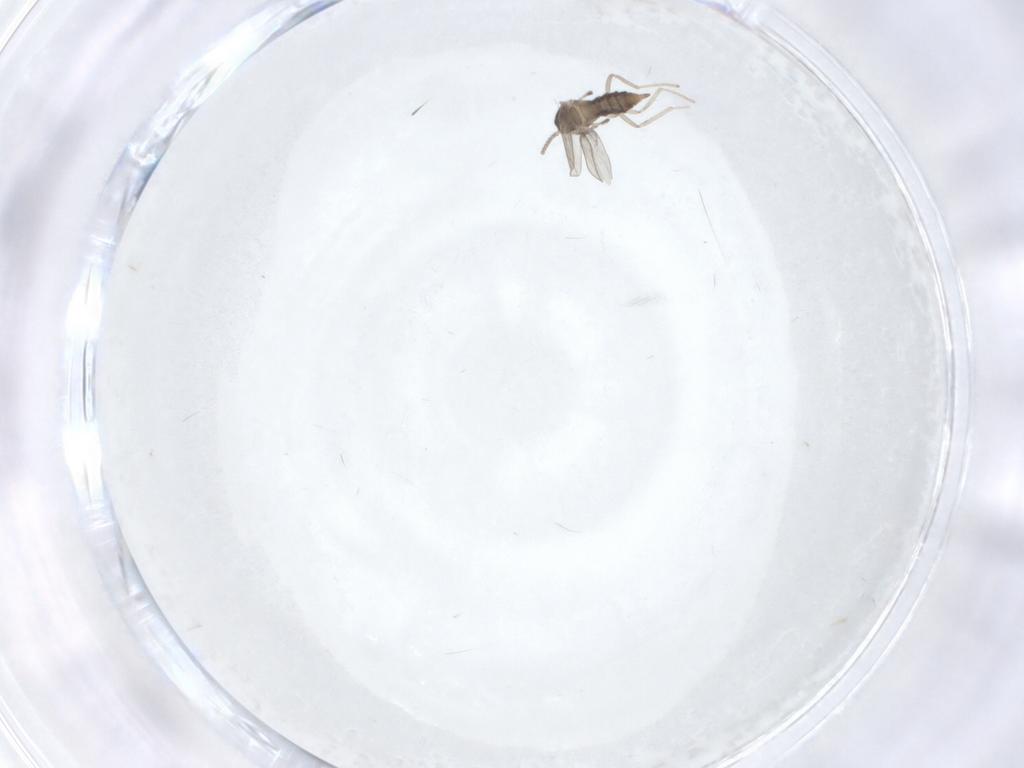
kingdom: Animalia
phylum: Arthropoda
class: Insecta
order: Diptera
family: Cecidomyiidae
